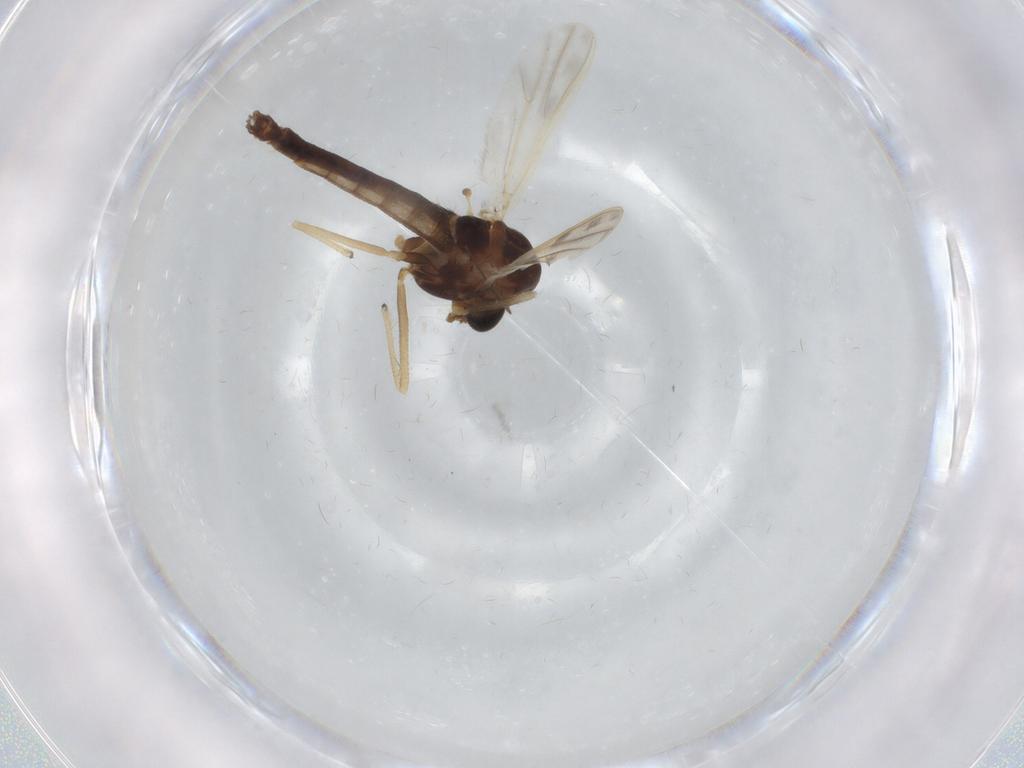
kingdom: Animalia
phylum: Arthropoda
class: Insecta
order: Diptera
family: Chironomidae
